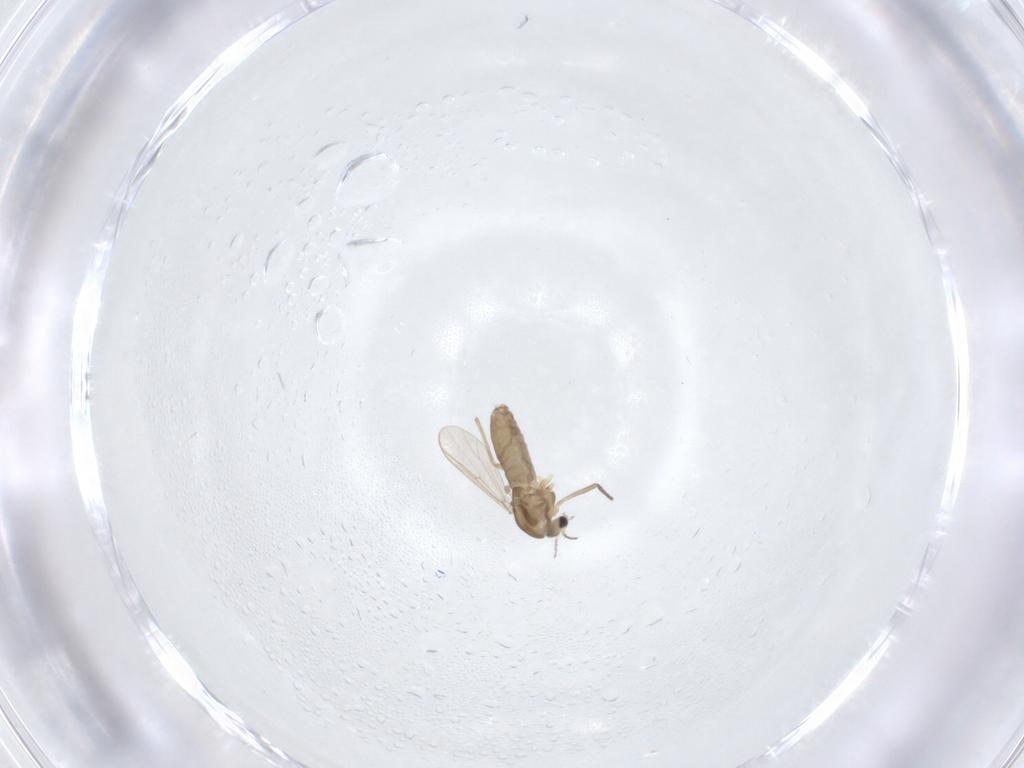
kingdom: Animalia
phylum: Arthropoda
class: Insecta
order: Diptera
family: Chironomidae
